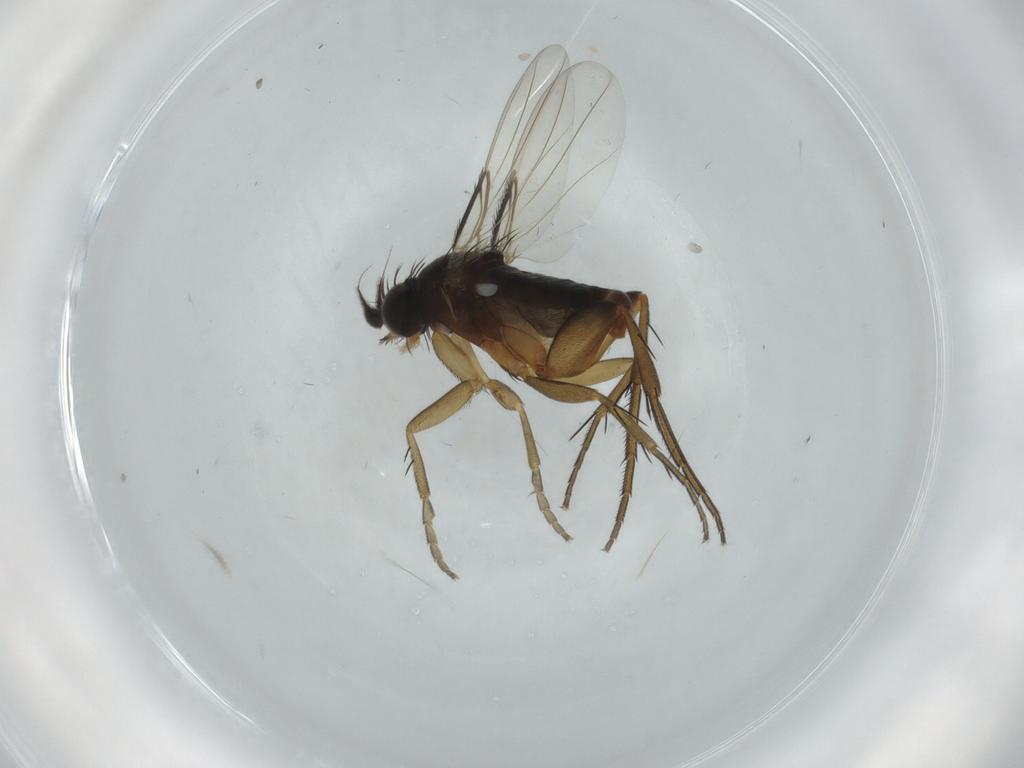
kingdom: Animalia
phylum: Arthropoda
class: Insecta
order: Diptera
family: Phoridae
